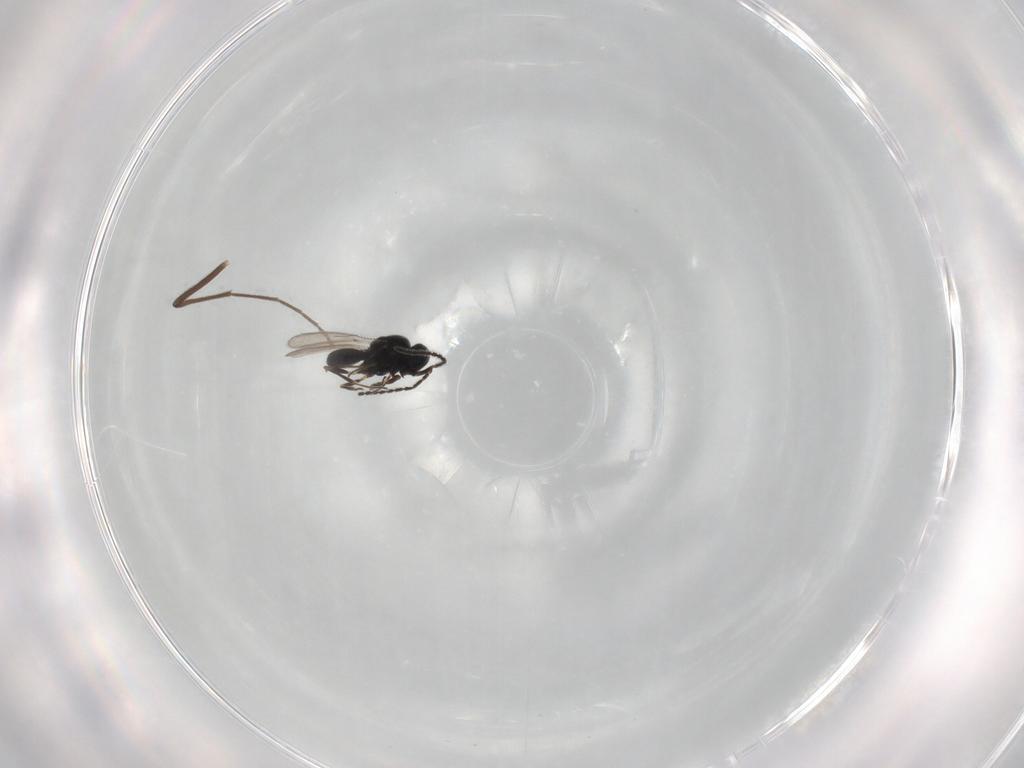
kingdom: Animalia
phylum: Arthropoda
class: Insecta
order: Hymenoptera
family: Scelionidae
